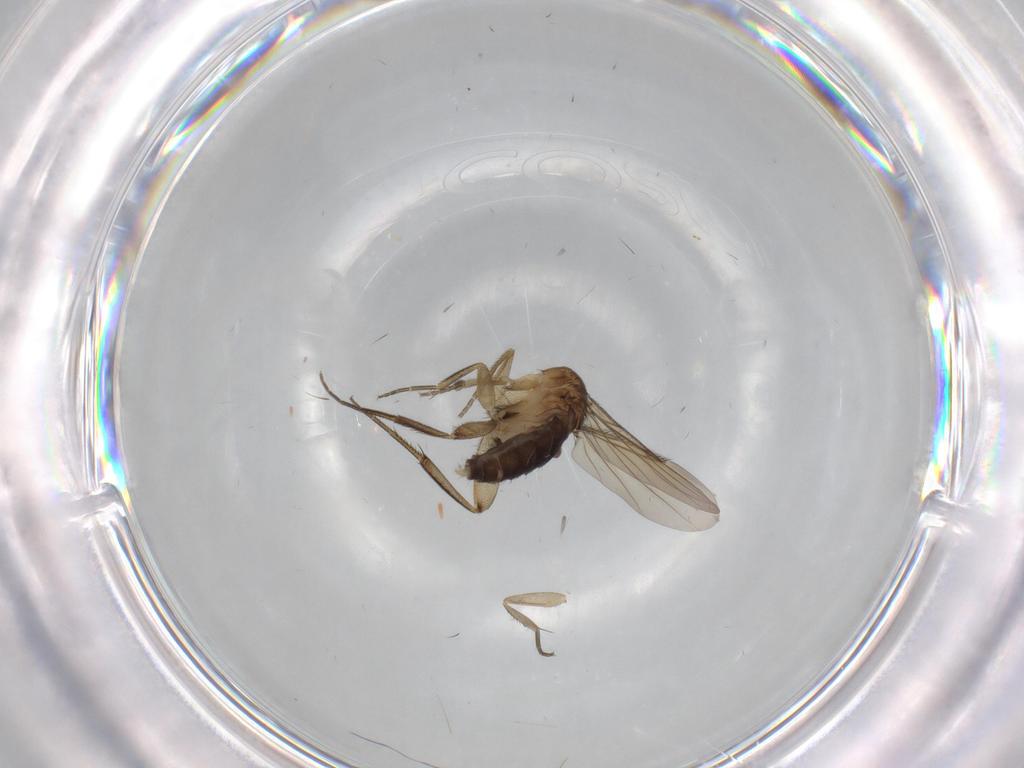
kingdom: Animalia
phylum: Arthropoda
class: Insecta
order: Diptera
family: Phoridae
